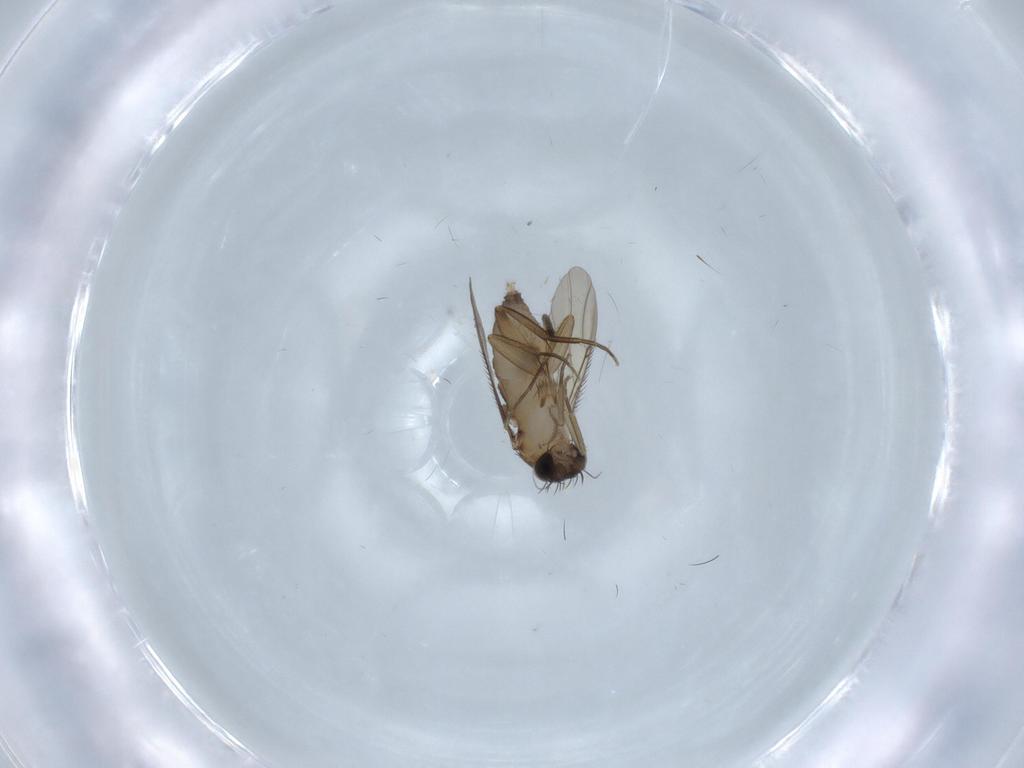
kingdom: Animalia
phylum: Arthropoda
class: Insecta
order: Diptera
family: Phoridae
